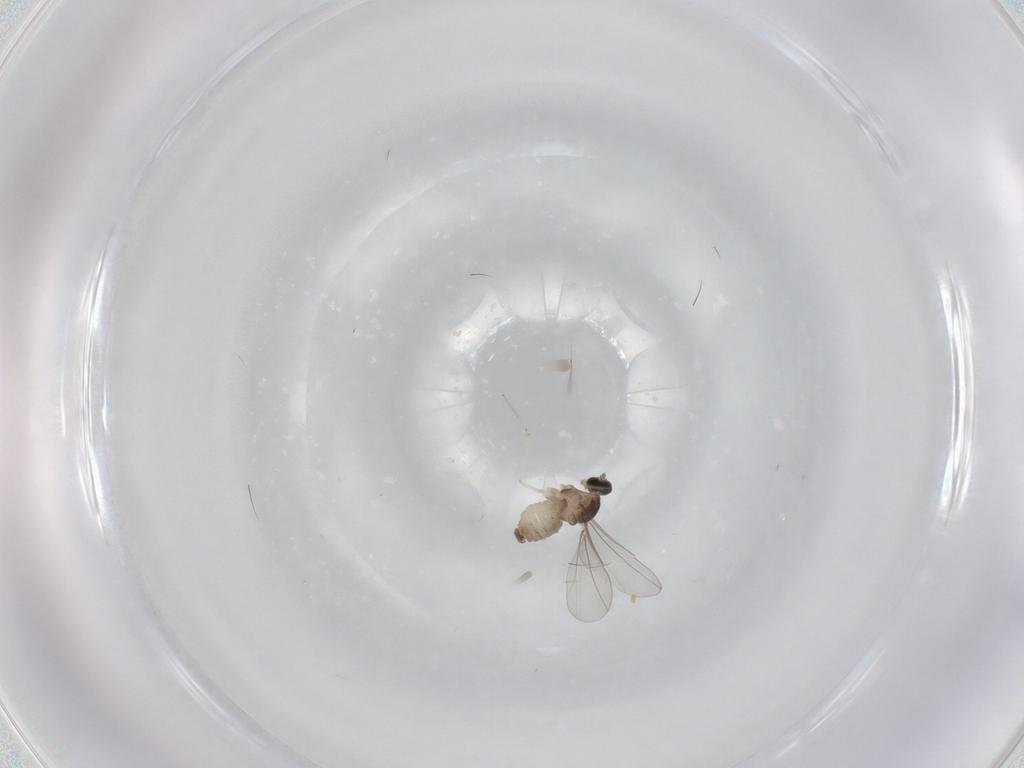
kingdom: Animalia
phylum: Arthropoda
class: Insecta
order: Diptera
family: Cecidomyiidae
